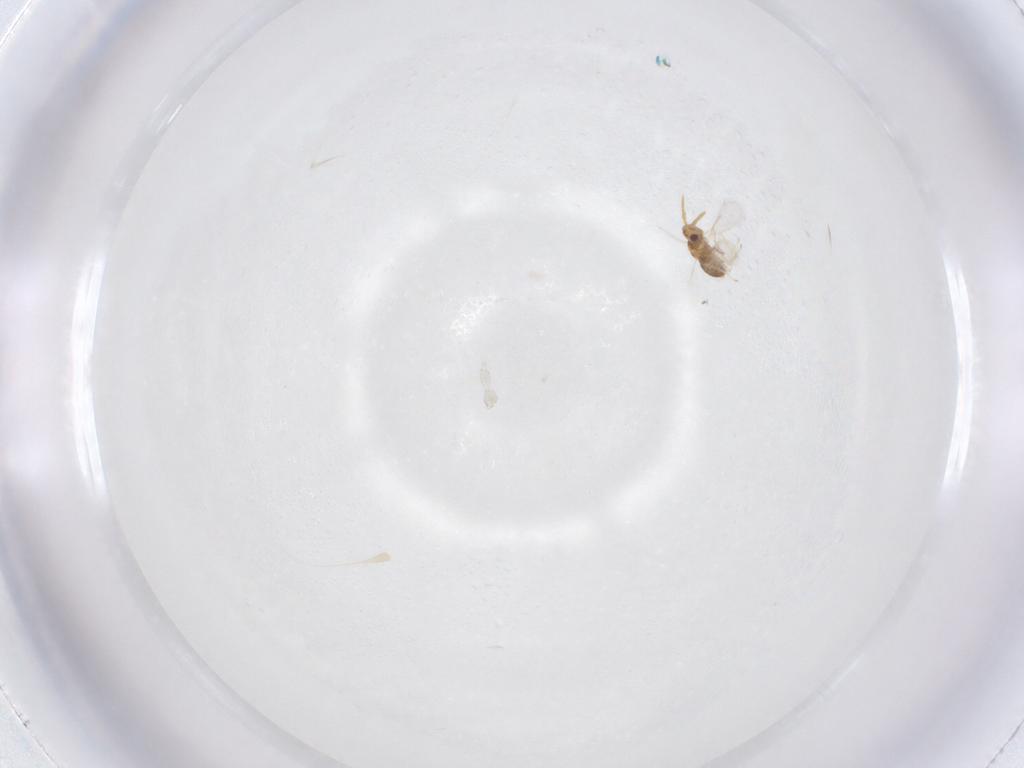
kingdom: Animalia
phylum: Arthropoda
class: Insecta
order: Hymenoptera
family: Aphelinidae
